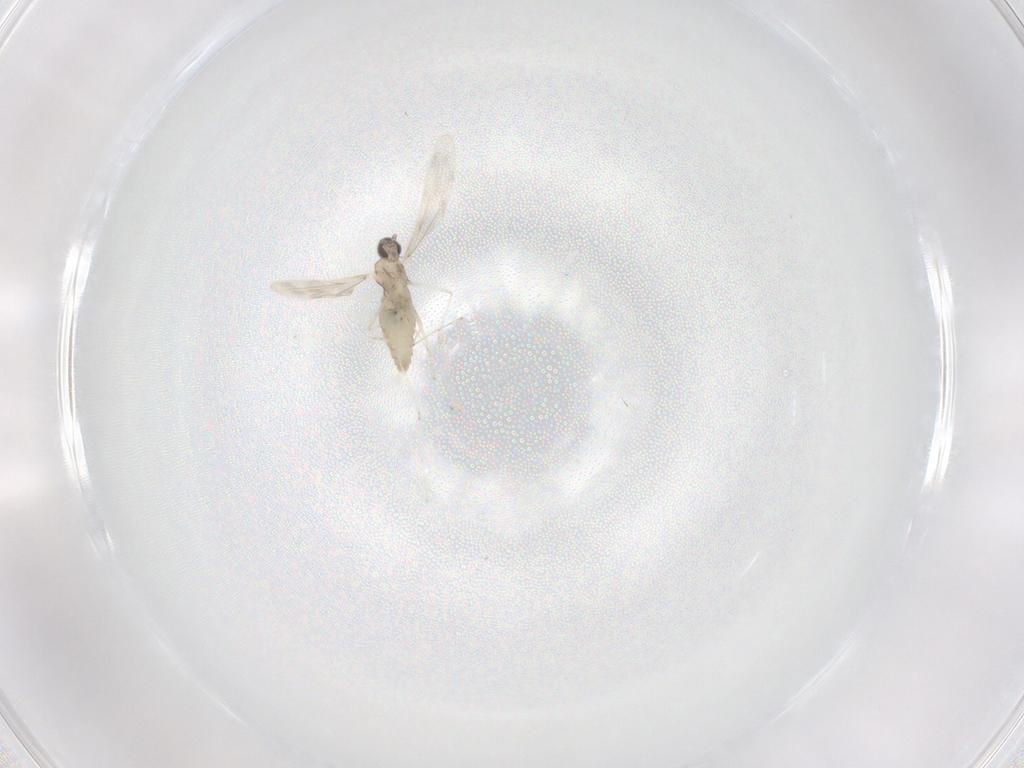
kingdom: Animalia
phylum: Arthropoda
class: Insecta
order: Diptera
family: Cecidomyiidae
